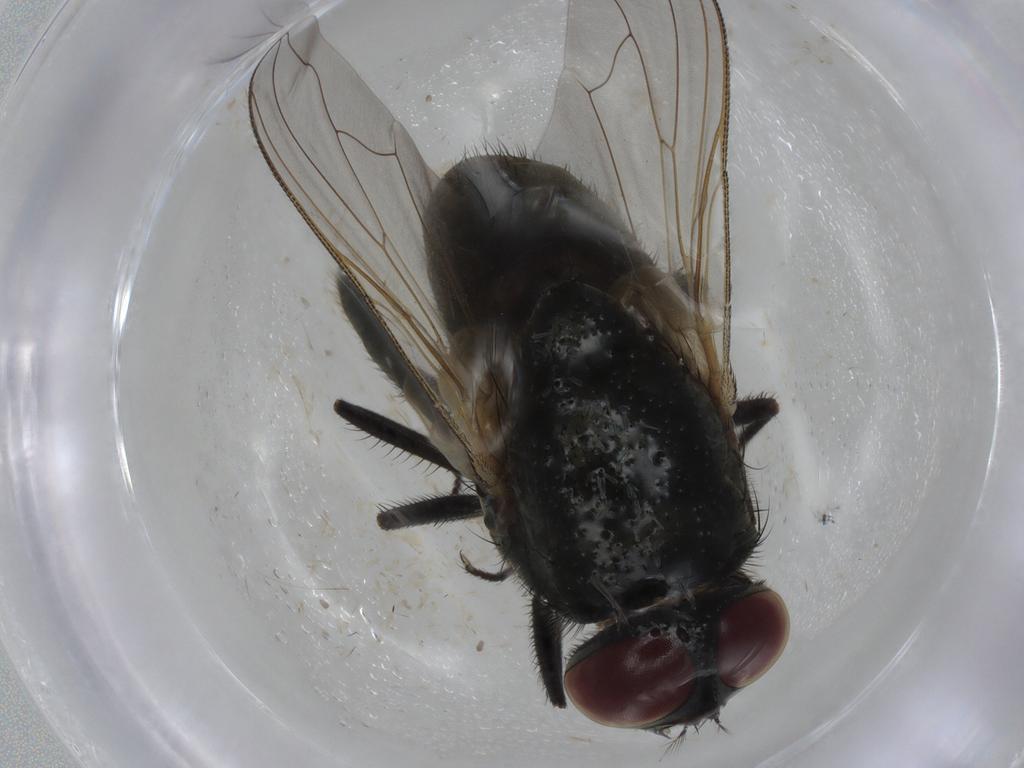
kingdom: Animalia
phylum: Arthropoda
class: Insecta
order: Diptera
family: Muscidae
